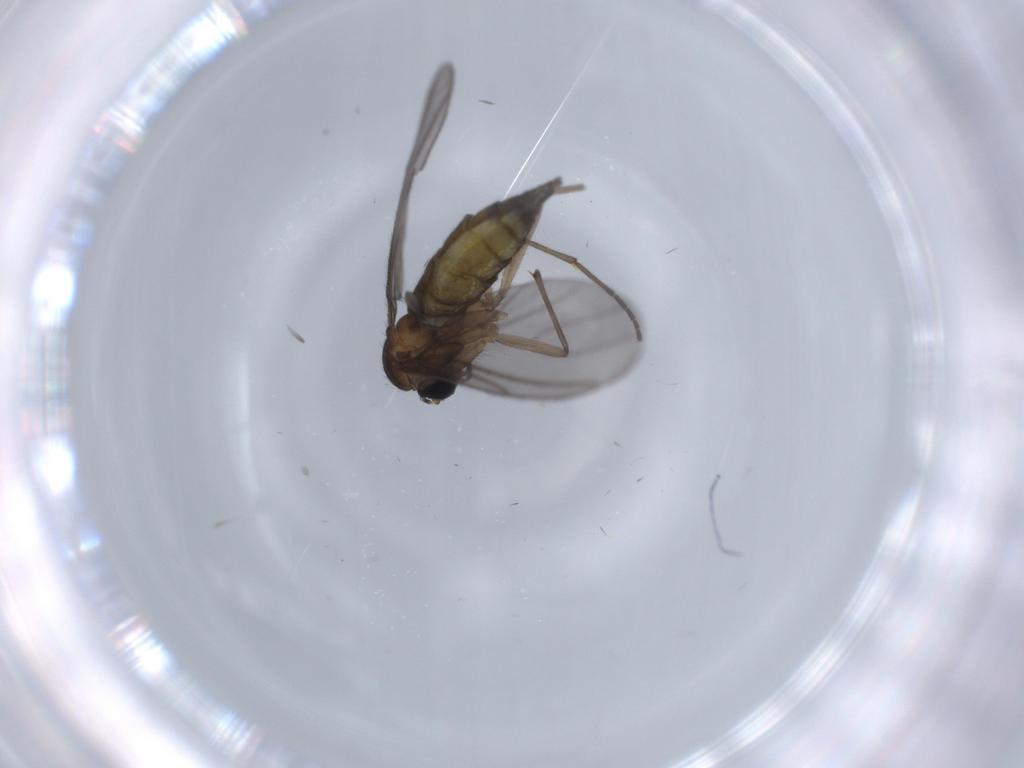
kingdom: Animalia
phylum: Arthropoda
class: Insecta
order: Diptera
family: Sciaridae
